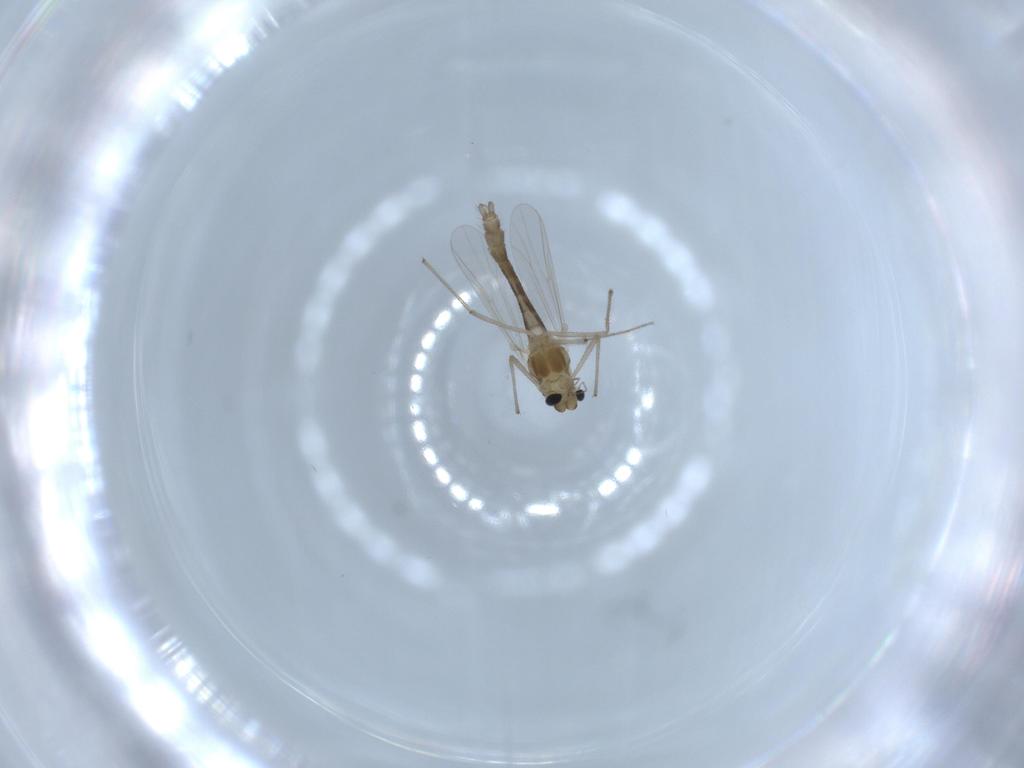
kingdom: Animalia
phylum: Arthropoda
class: Insecta
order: Diptera
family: Chironomidae
